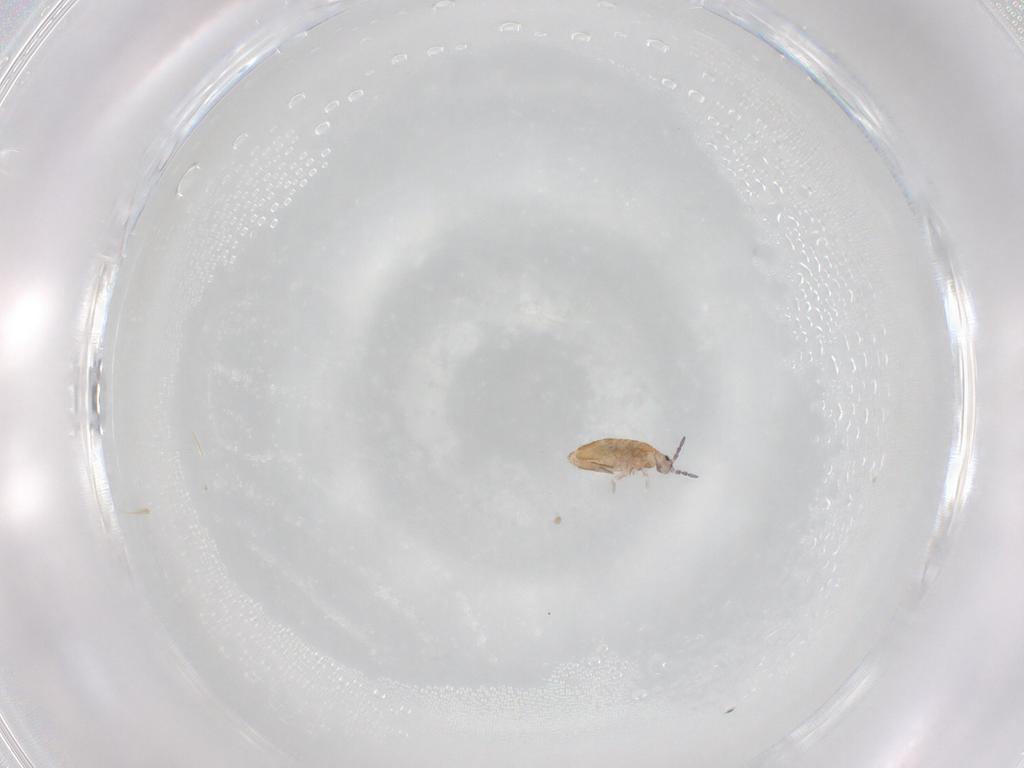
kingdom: Animalia
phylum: Arthropoda
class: Collembola
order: Entomobryomorpha
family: Entomobryidae
